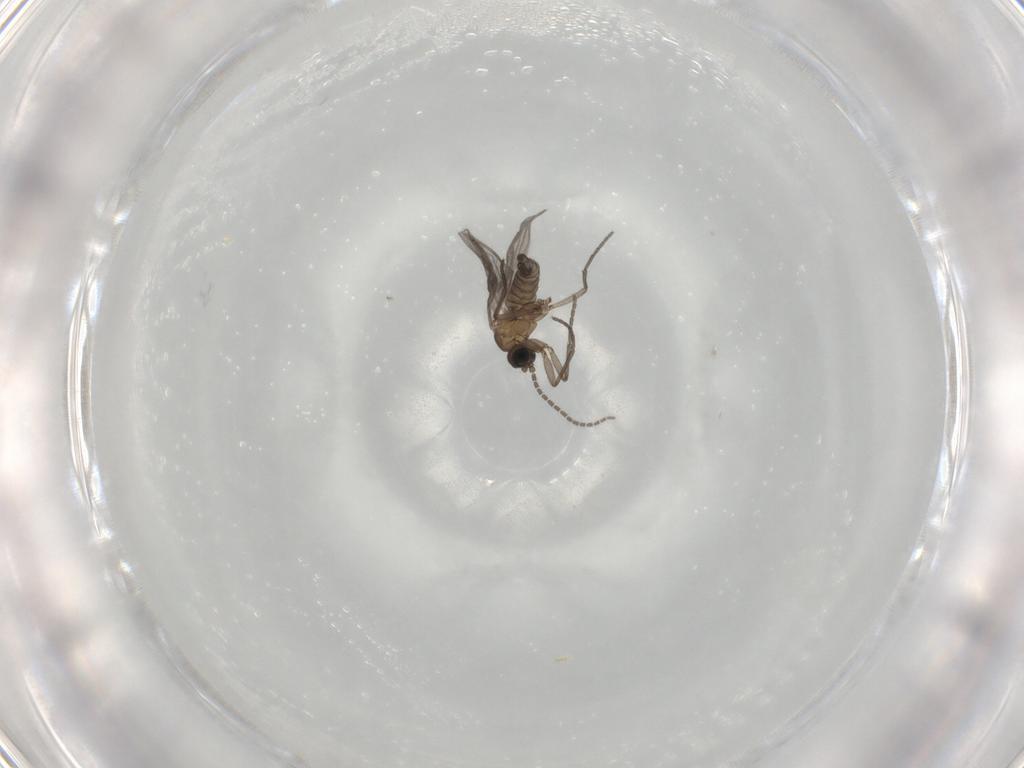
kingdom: Animalia
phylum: Arthropoda
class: Insecta
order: Diptera
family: Sciaridae
